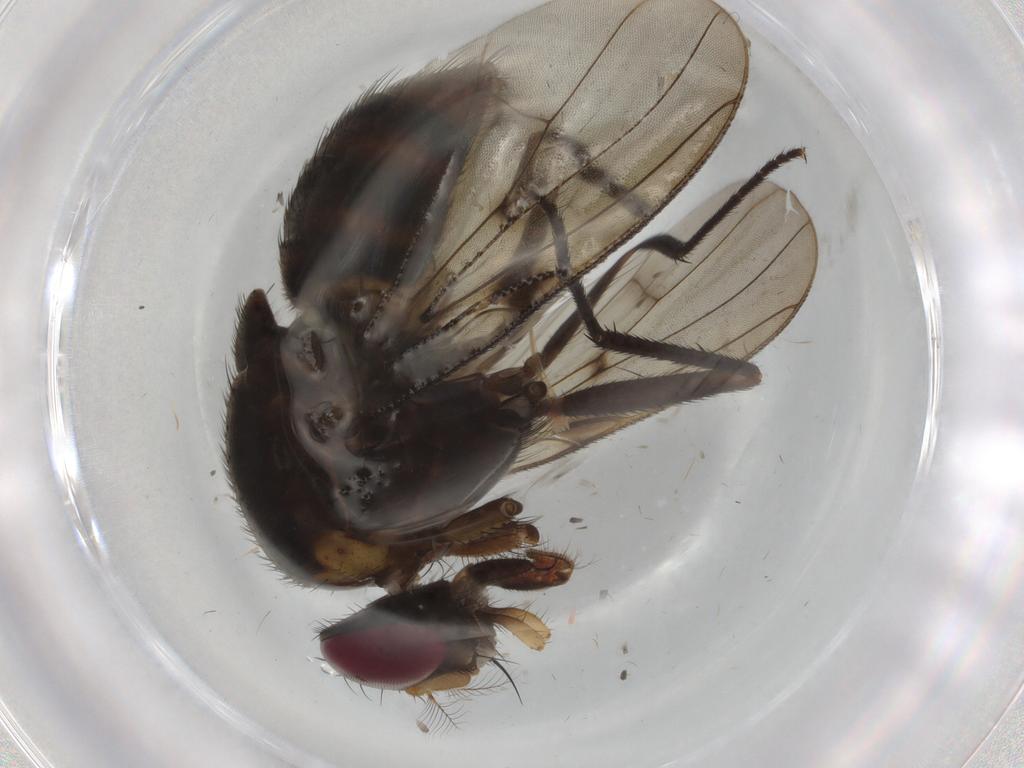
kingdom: Animalia
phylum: Arthropoda
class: Insecta
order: Diptera
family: Muscidae
